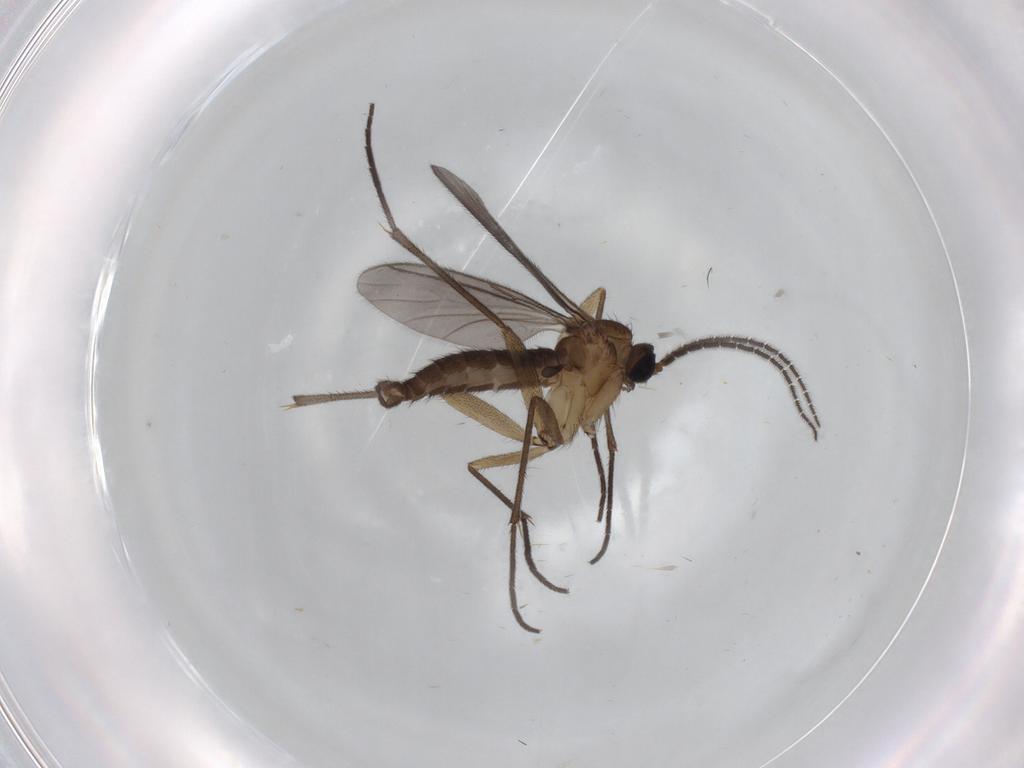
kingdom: Animalia
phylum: Arthropoda
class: Insecta
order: Diptera
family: Sciaridae
